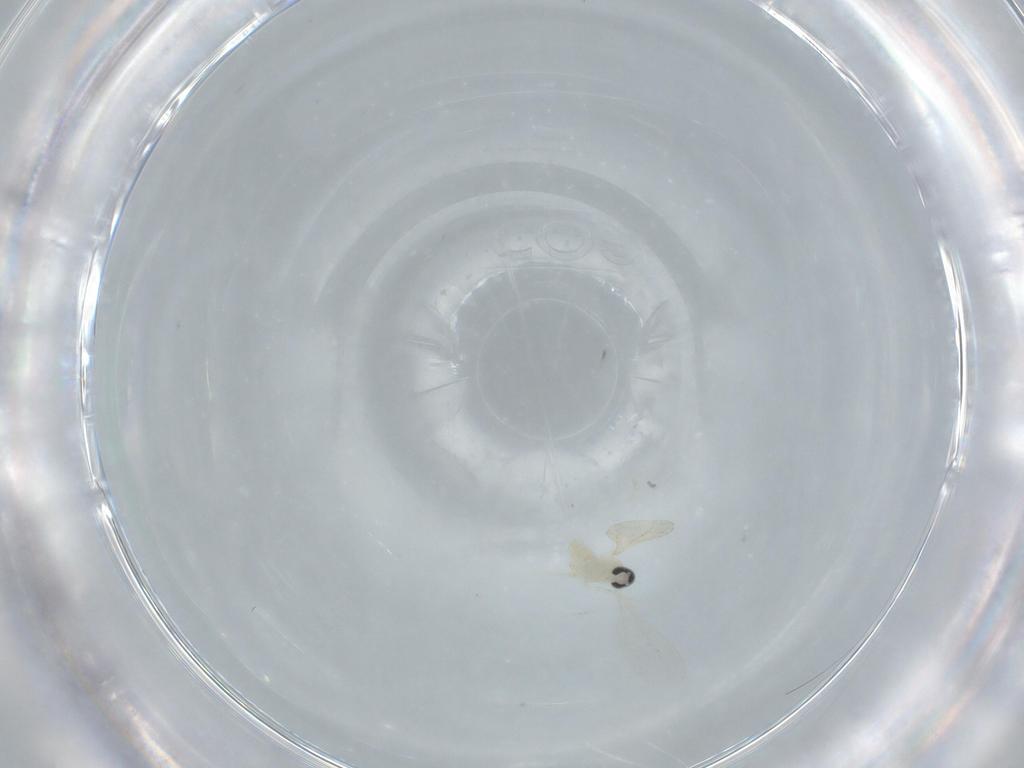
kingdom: Animalia
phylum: Arthropoda
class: Insecta
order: Diptera
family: Cecidomyiidae
